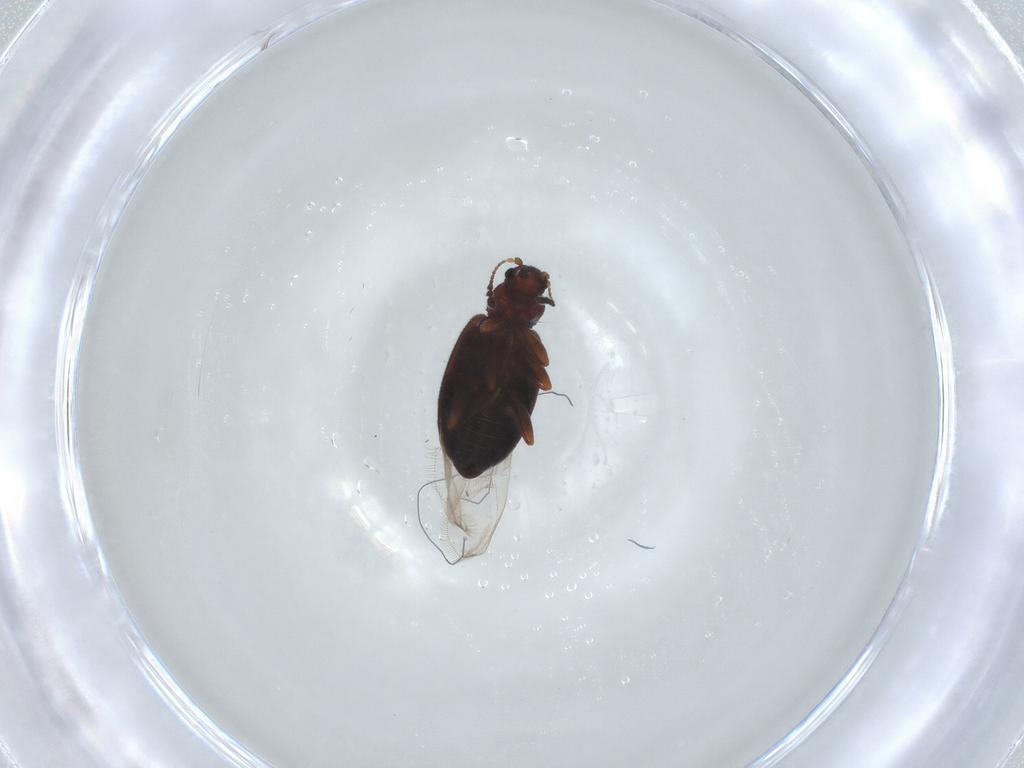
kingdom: Animalia
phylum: Arthropoda
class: Insecta
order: Coleoptera
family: Latridiidae
